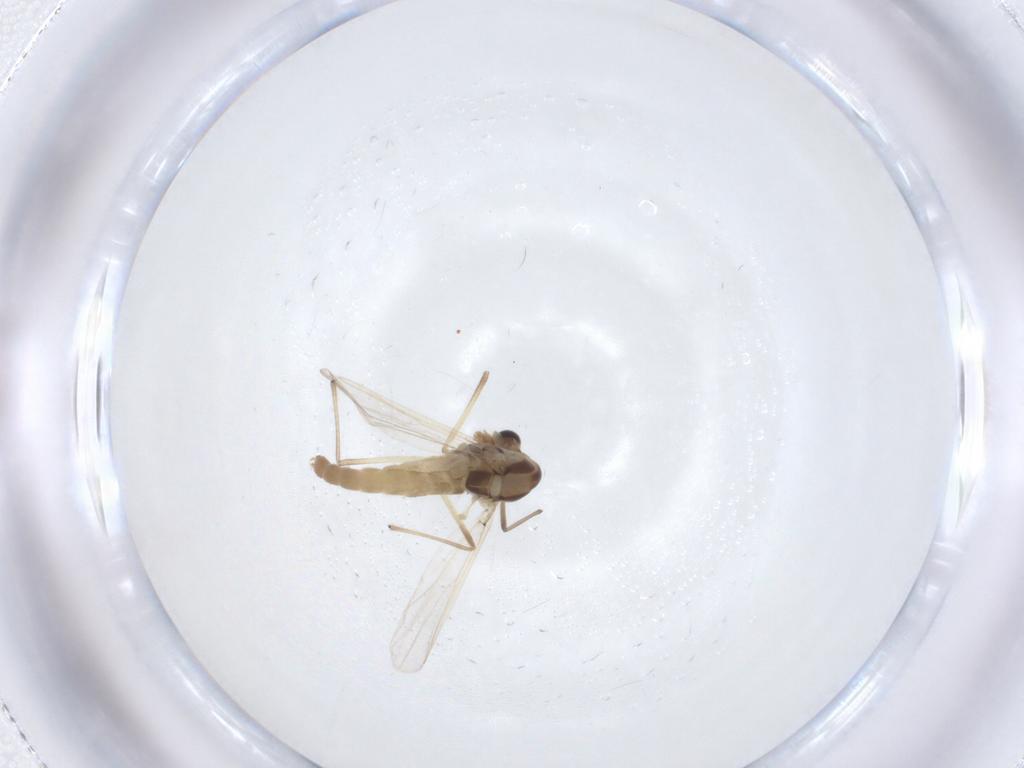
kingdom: Animalia
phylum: Arthropoda
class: Insecta
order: Diptera
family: Chironomidae
